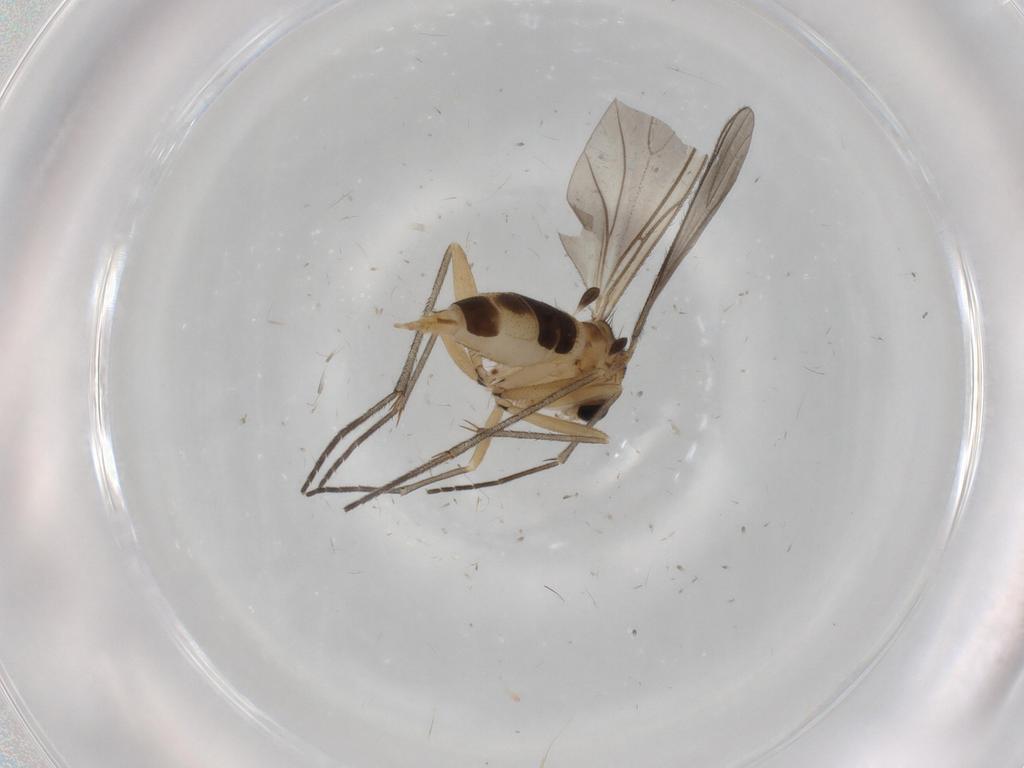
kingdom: Animalia
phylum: Arthropoda
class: Insecta
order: Diptera
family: Sciaridae
